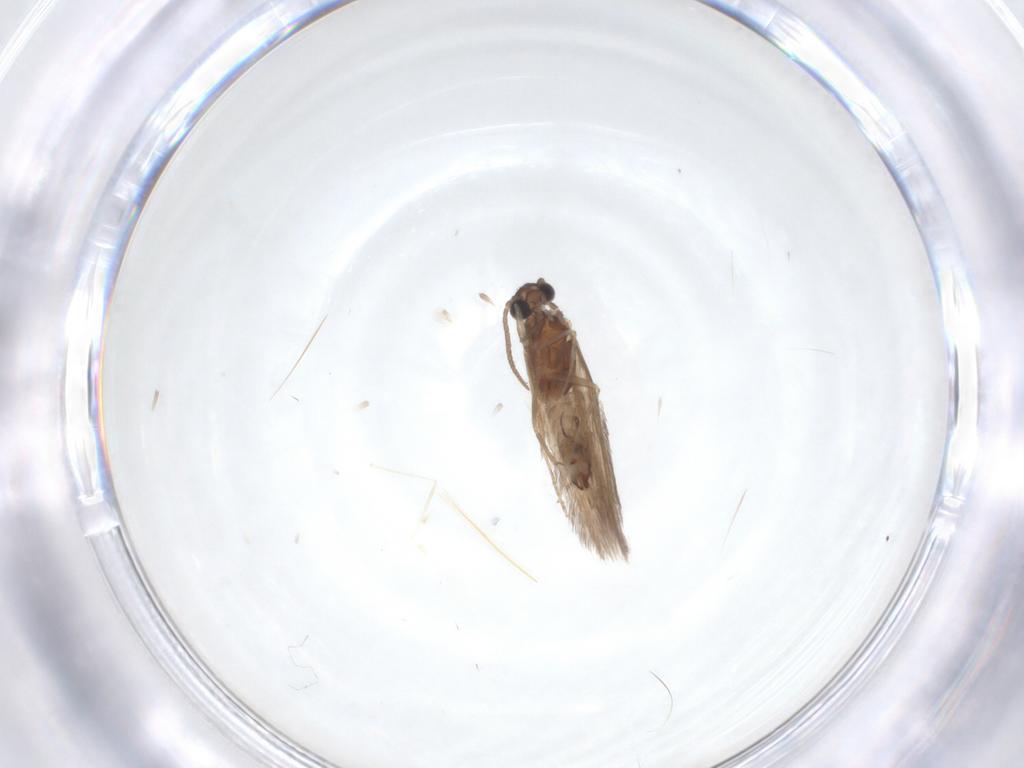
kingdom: Animalia
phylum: Arthropoda
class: Insecta
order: Trichoptera
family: Hydroptilidae
